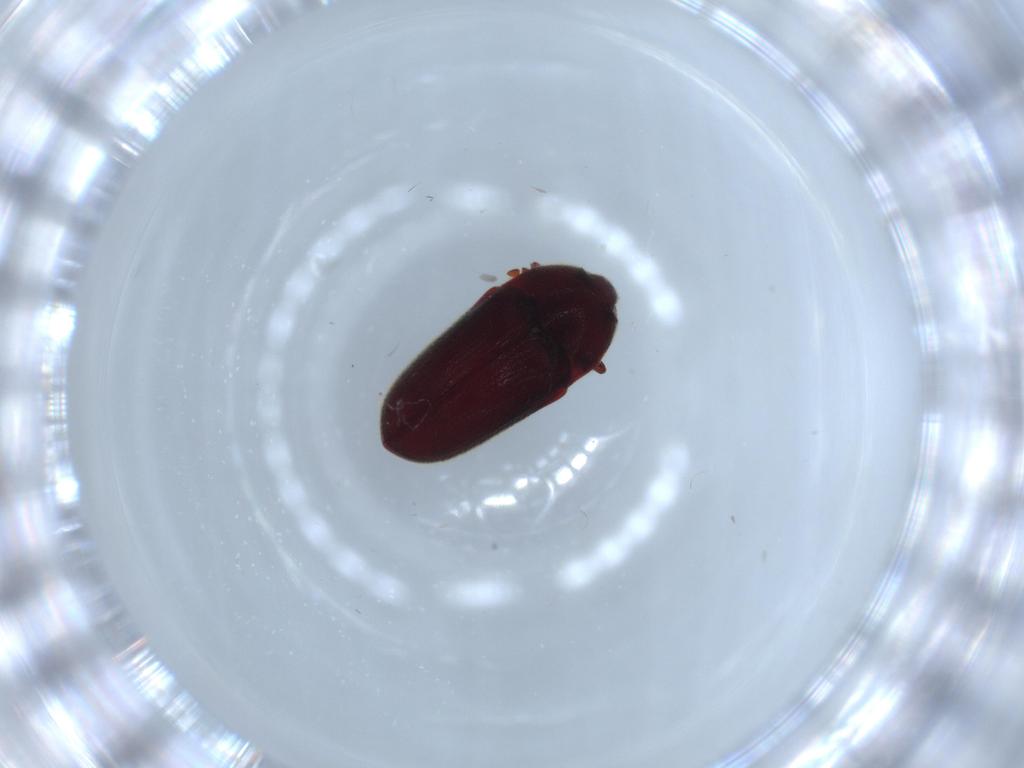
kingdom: Animalia
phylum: Arthropoda
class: Insecta
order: Coleoptera
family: Throscidae
